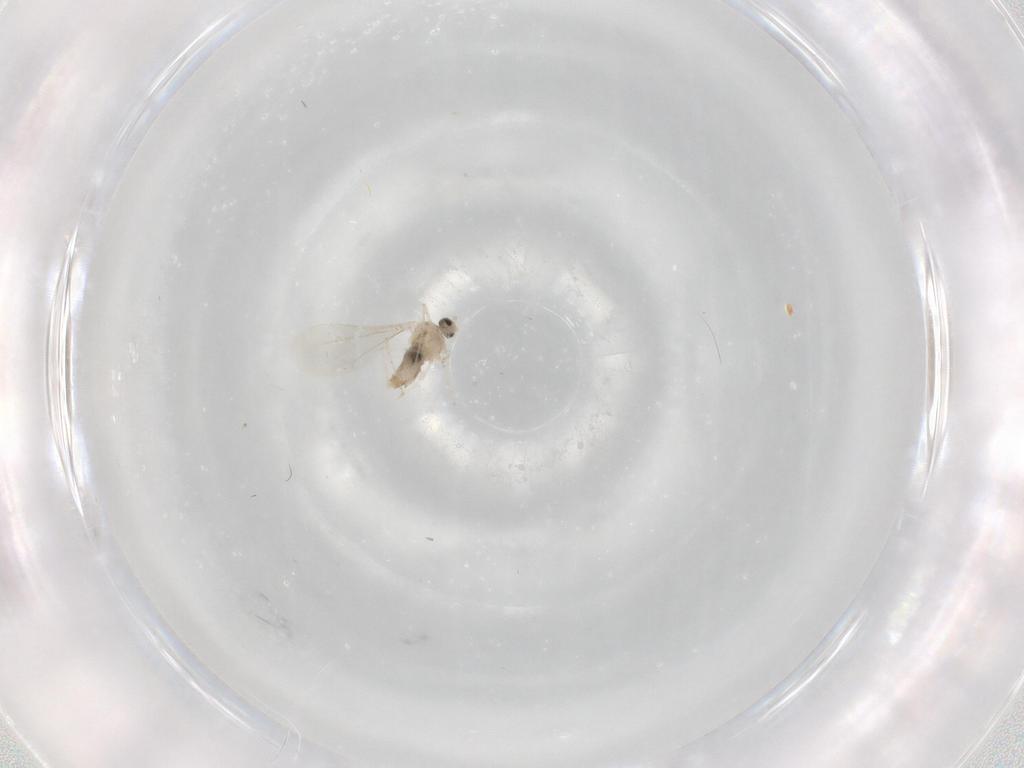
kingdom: Animalia
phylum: Arthropoda
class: Insecta
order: Diptera
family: Cecidomyiidae
